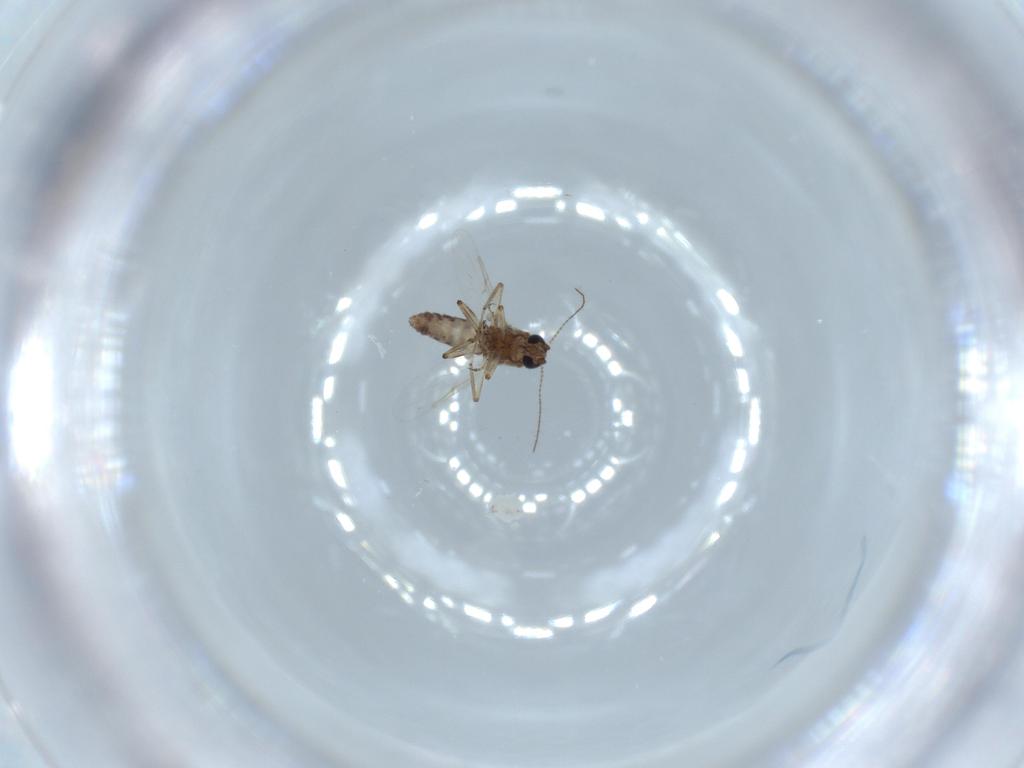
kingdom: Animalia
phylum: Arthropoda
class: Insecta
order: Diptera
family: Ceratopogonidae
